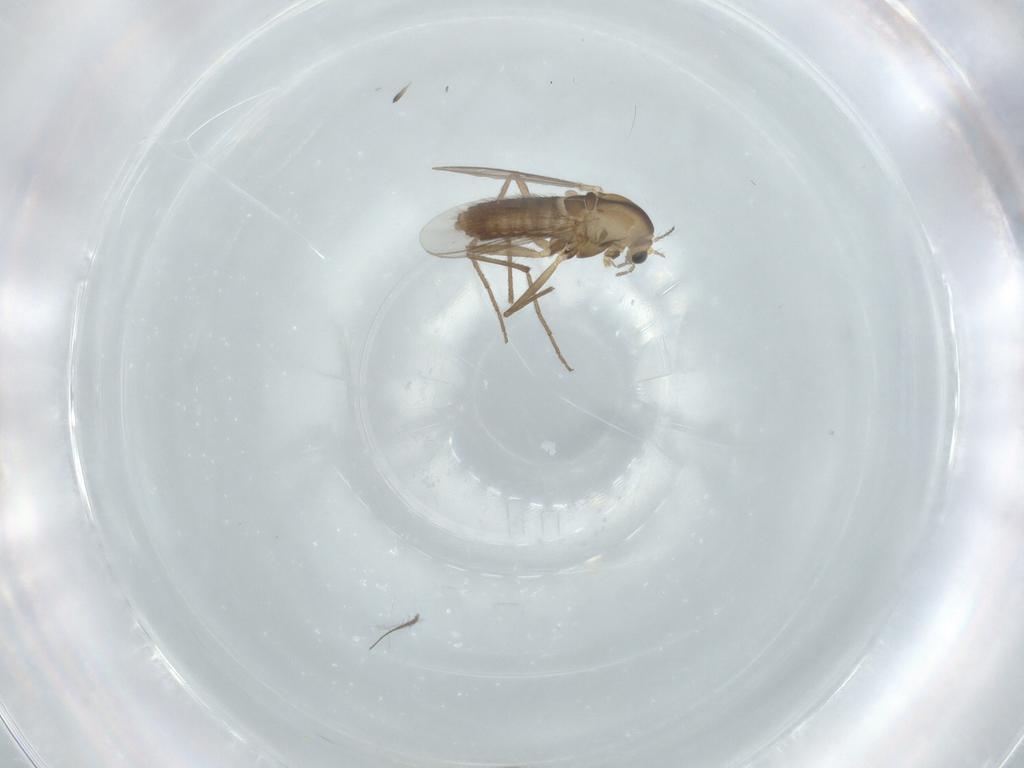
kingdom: Animalia
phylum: Arthropoda
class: Insecta
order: Diptera
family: Chironomidae
